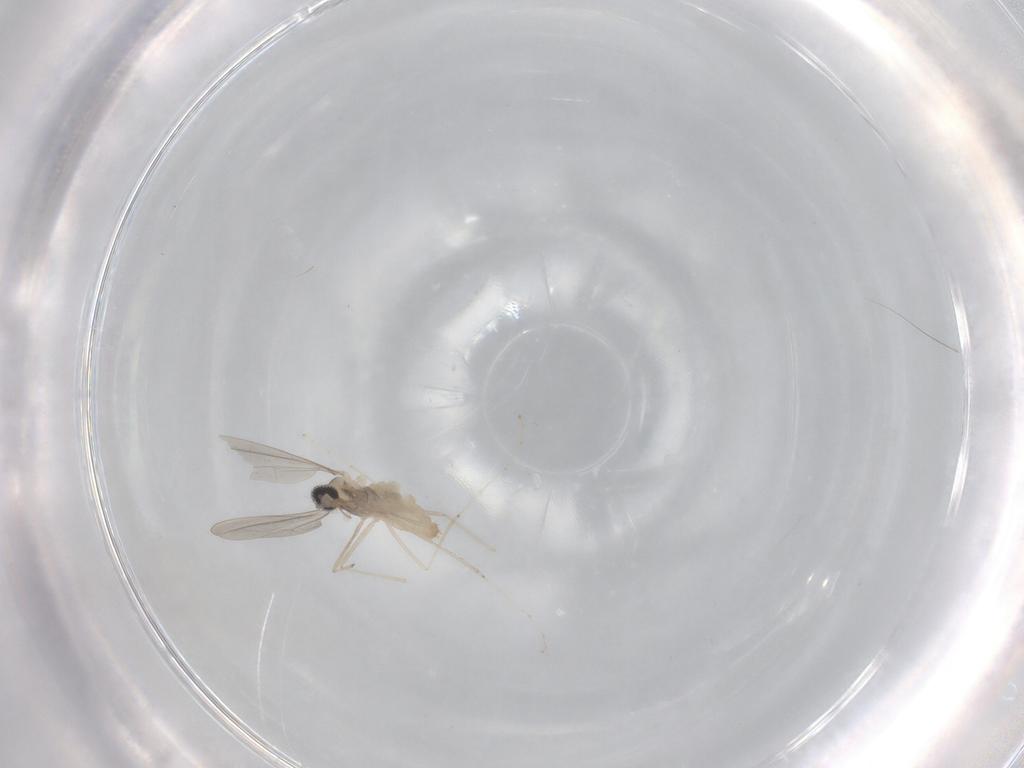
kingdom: Animalia
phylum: Arthropoda
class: Insecta
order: Diptera
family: Cecidomyiidae
